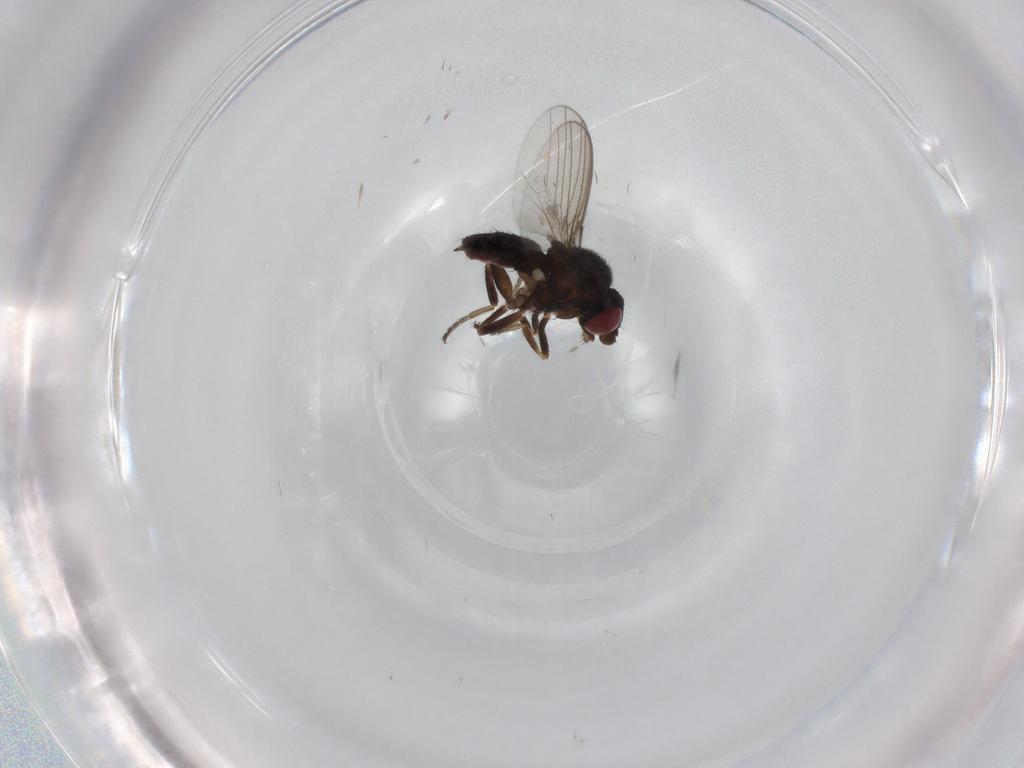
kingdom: Animalia
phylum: Arthropoda
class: Insecta
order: Diptera
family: Milichiidae
